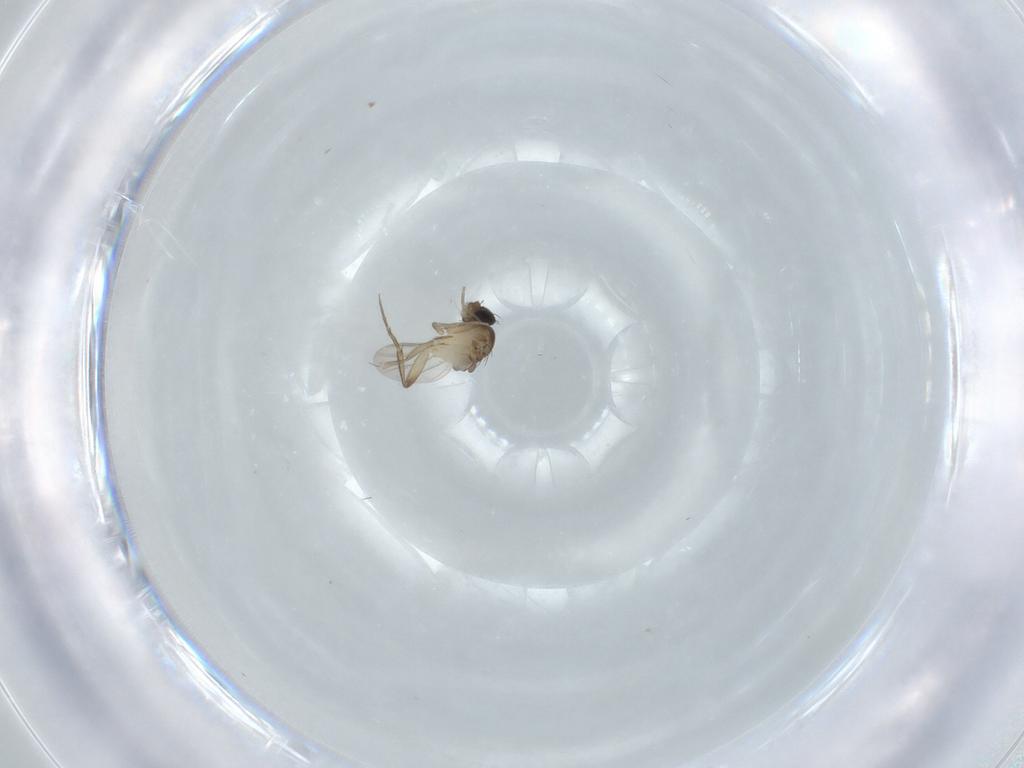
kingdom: Animalia
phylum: Arthropoda
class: Insecta
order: Diptera
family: Phoridae
